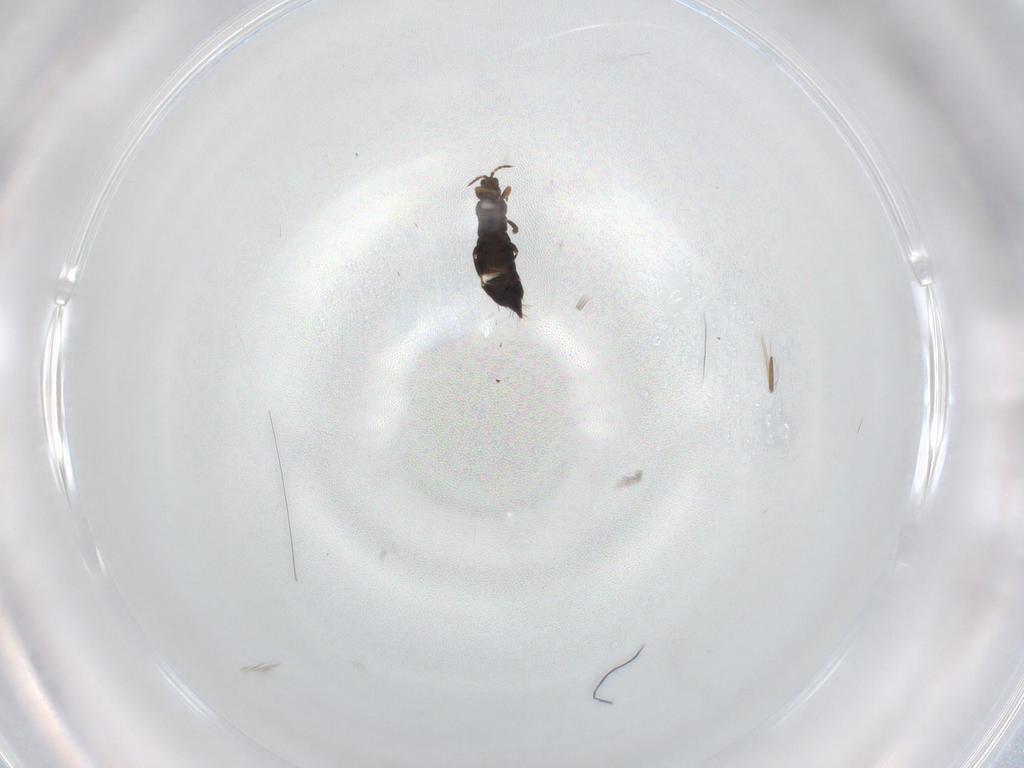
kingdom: Animalia
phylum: Arthropoda
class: Insecta
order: Thysanoptera
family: Thripidae
